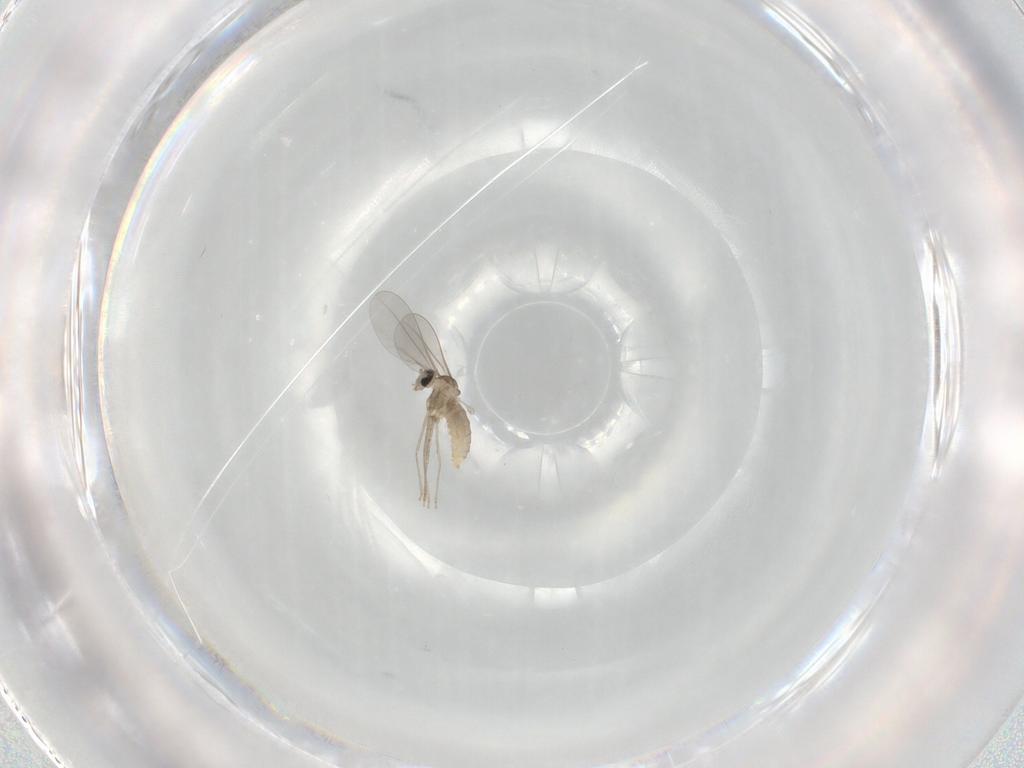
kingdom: Animalia
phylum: Arthropoda
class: Insecta
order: Diptera
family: Cecidomyiidae
